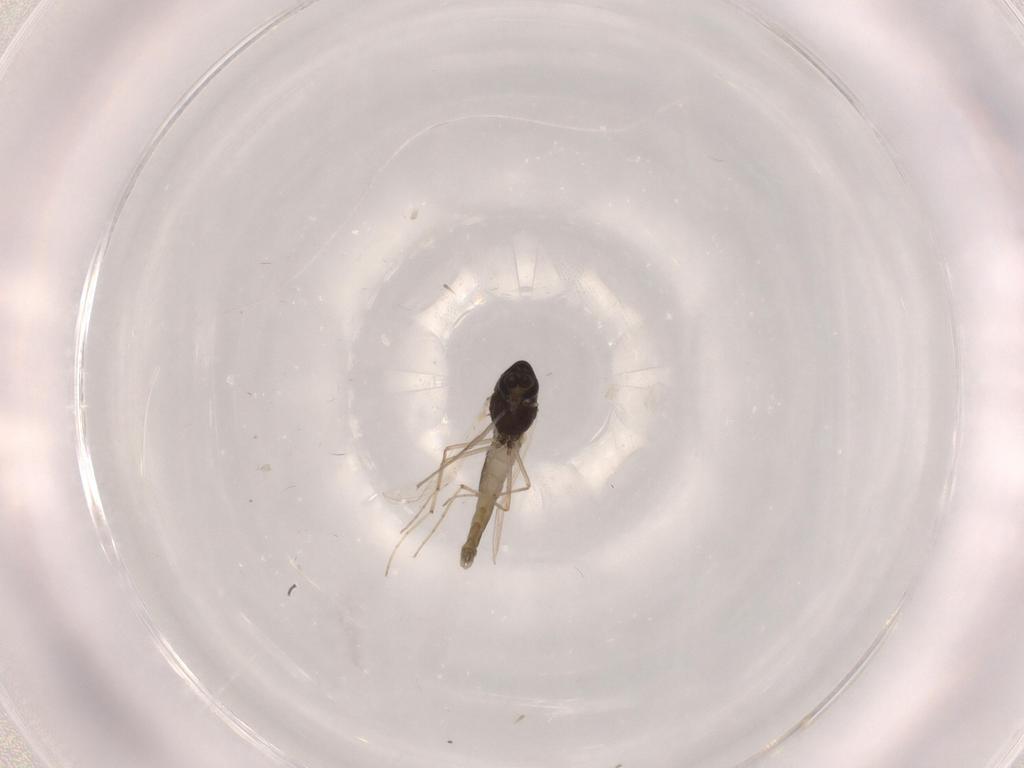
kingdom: Animalia
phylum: Arthropoda
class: Insecta
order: Diptera
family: Chironomidae
